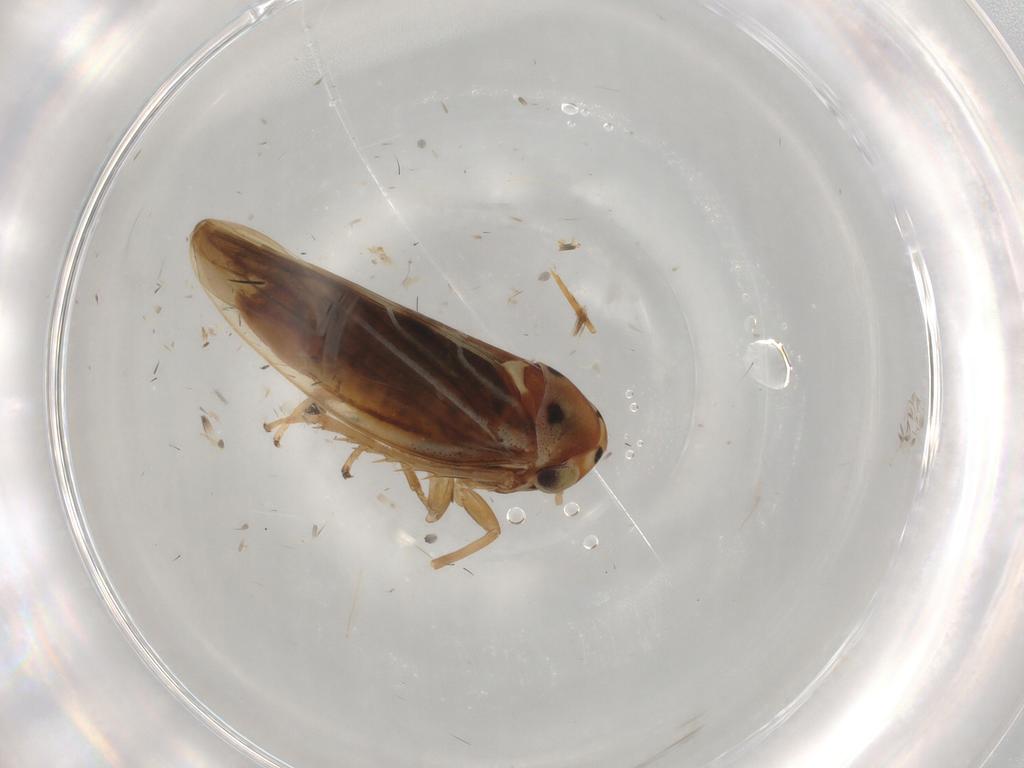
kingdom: Animalia
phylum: Arthropoda
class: Insecta
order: Hemiptera
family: Cicadellidae
